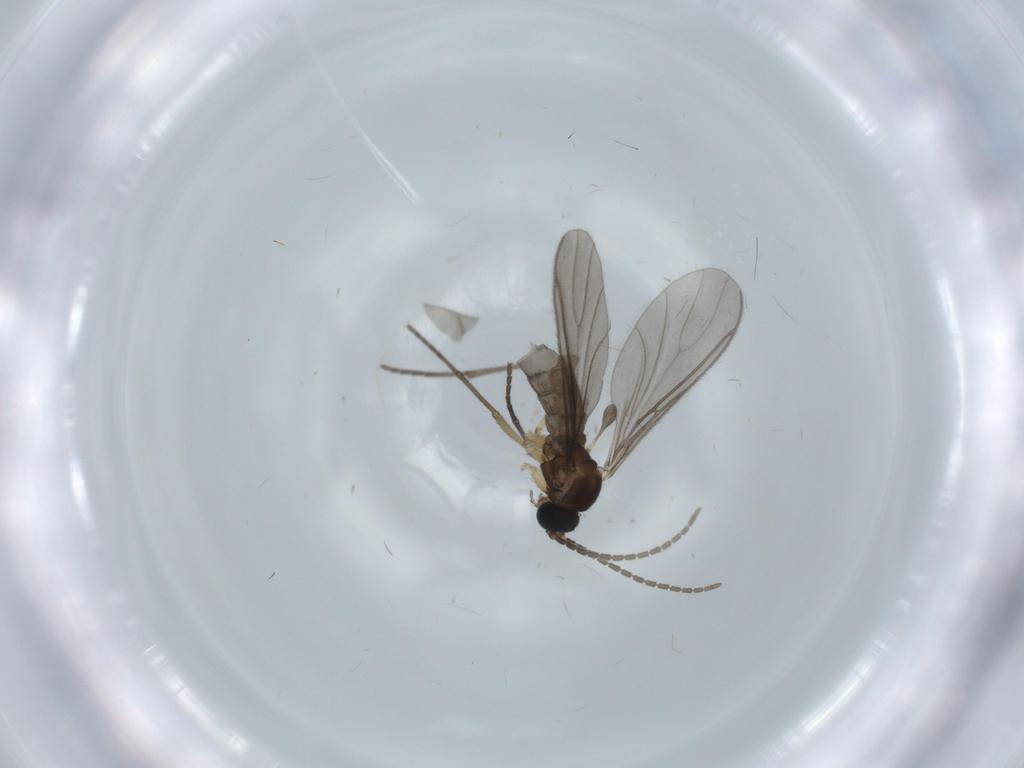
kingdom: Animalia
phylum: Arthropoda
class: Insecta
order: Diptera
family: Sciaridae
